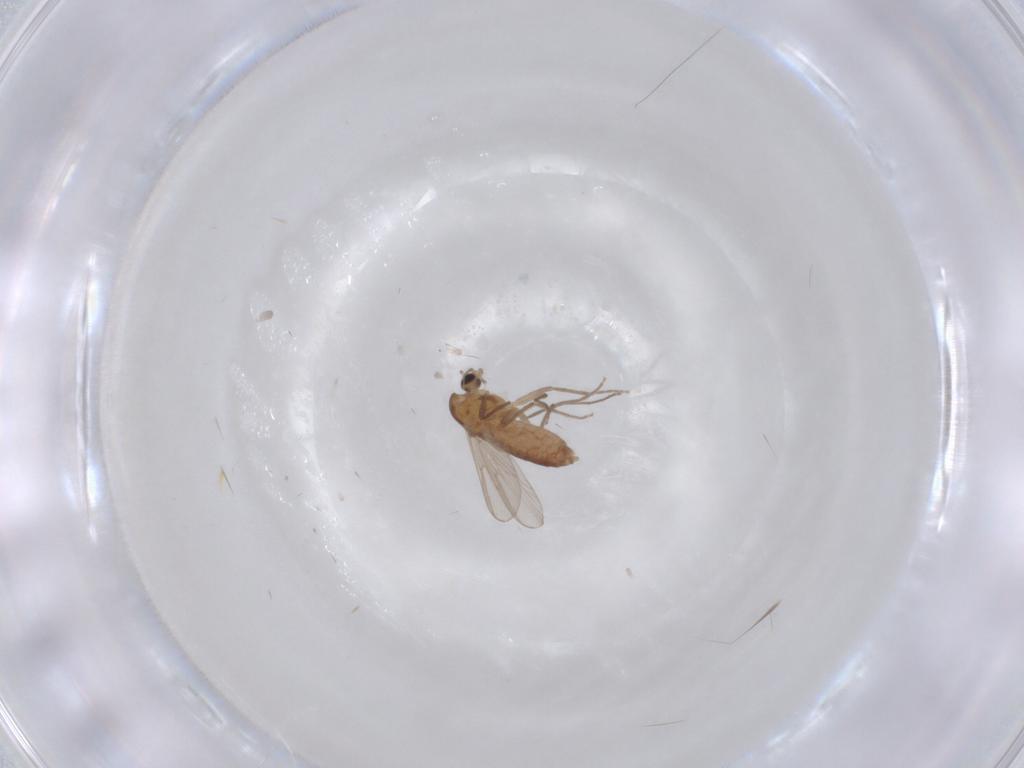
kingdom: Animalia
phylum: Arthropoda
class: Insecta
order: Diptera
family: Chironomidae
